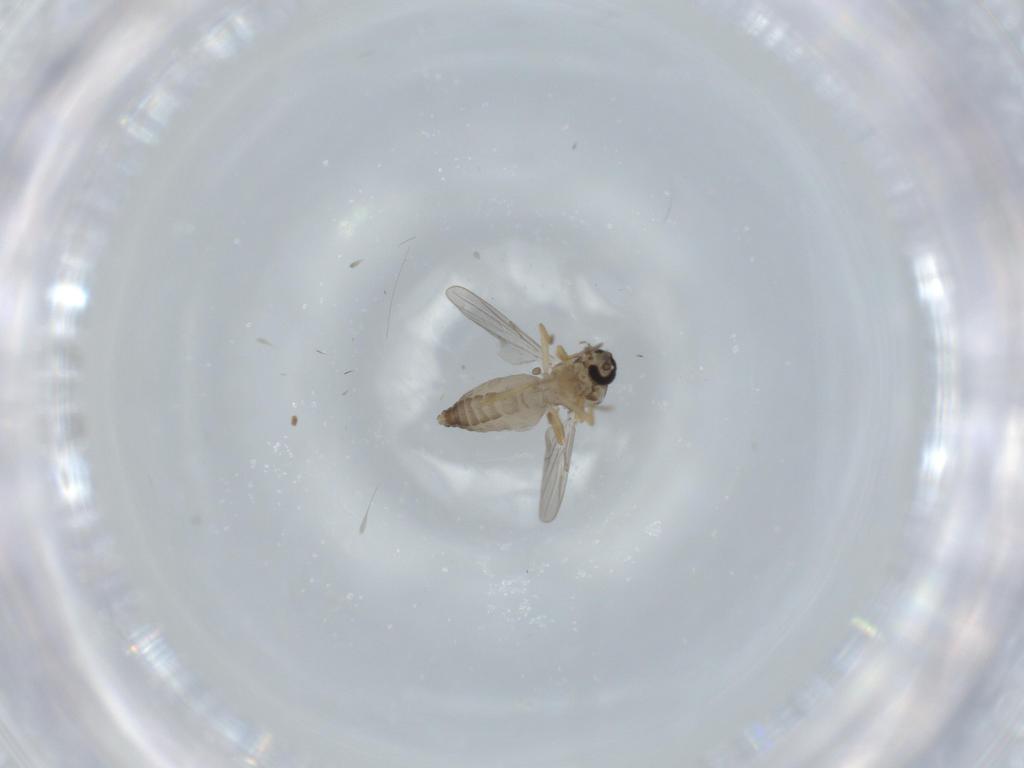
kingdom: Animalia
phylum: Arthropoda
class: Insecta
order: Diptera
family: Ceratopogonidae
